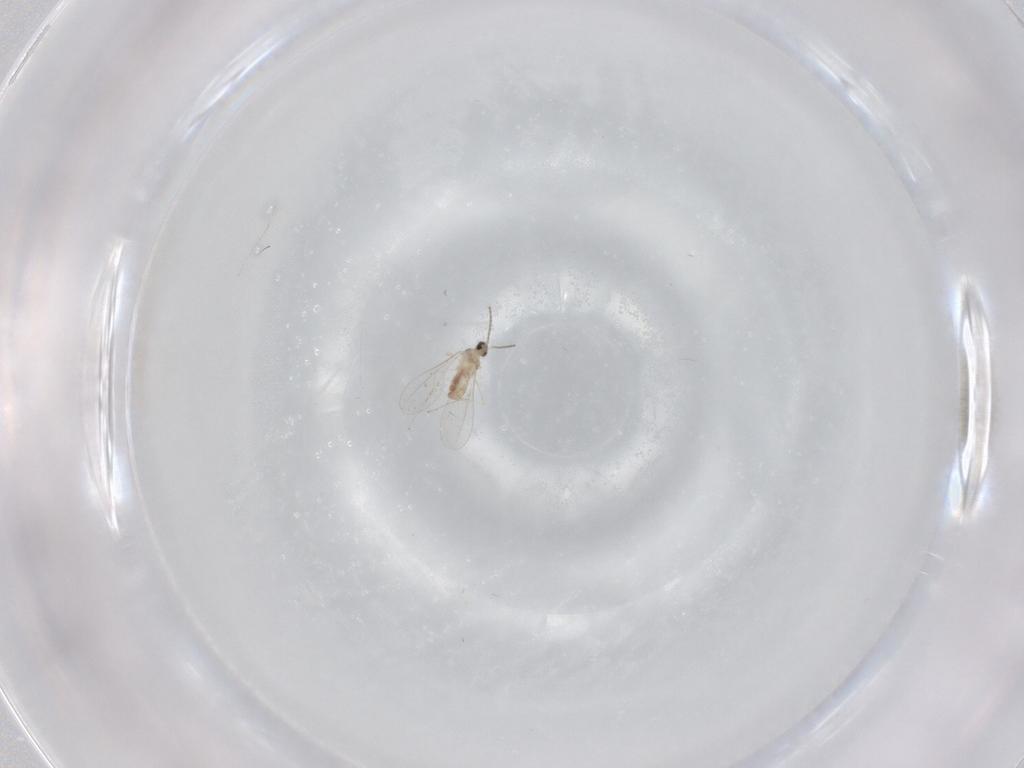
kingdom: Animalia
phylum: Arthropoda
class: Insecta
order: Diptera
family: Cecidomyiidae
